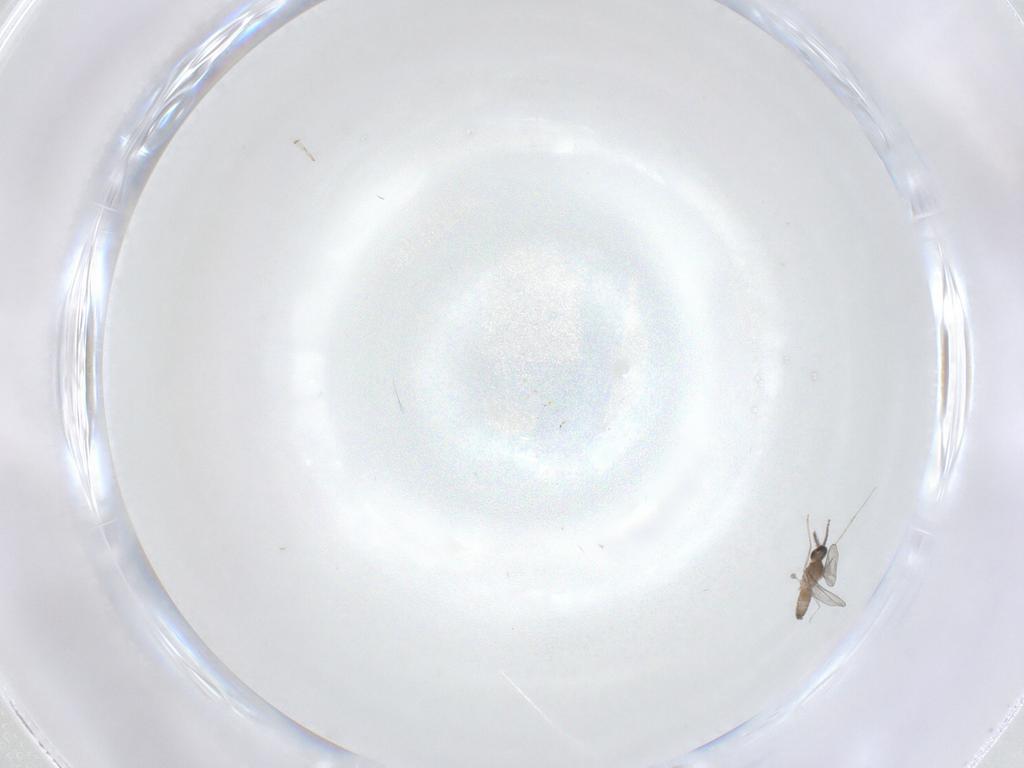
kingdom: Animalia
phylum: Arthropoda
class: Insecta
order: Diptera
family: Cecidomyiidae
